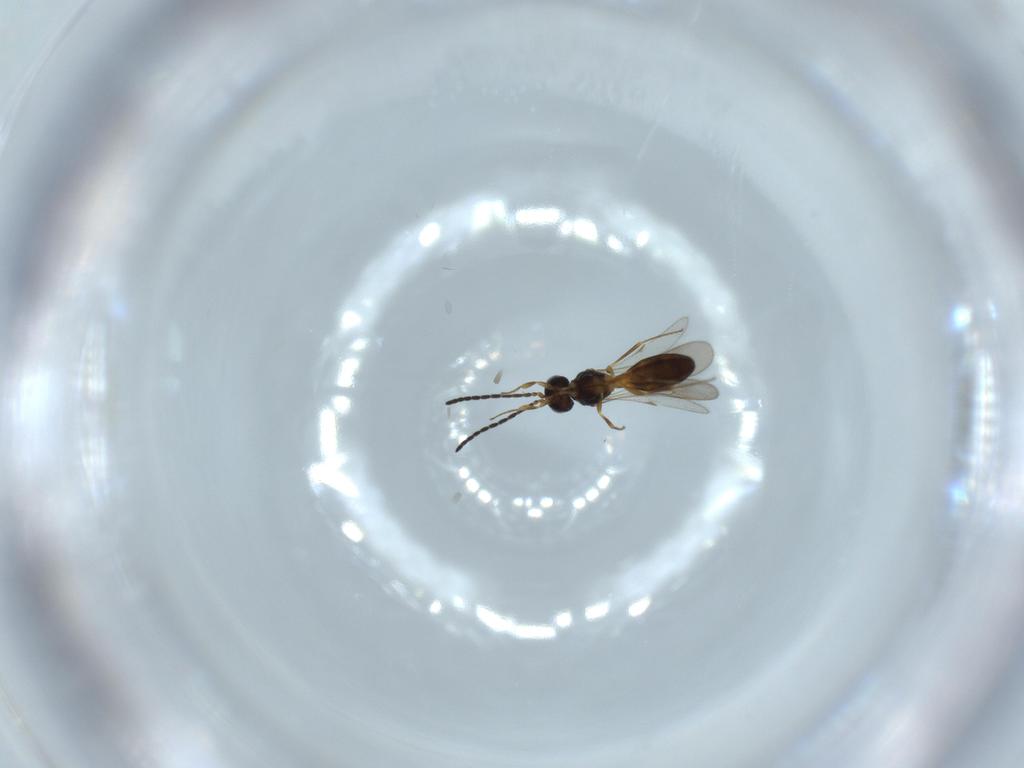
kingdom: Animalia
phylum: Arthropoda
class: Insecta
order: Hymenoptera
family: Scelionidae
